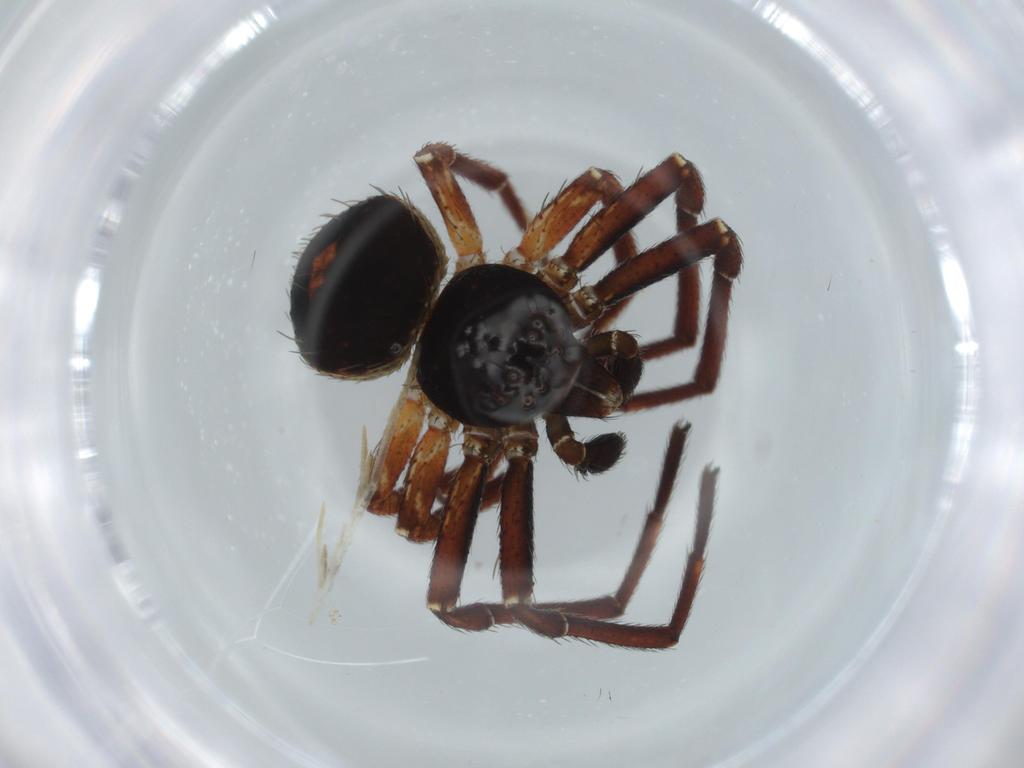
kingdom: Animalia
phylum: Arthropoda
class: Arachnida
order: Araneae
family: Thomisidae
